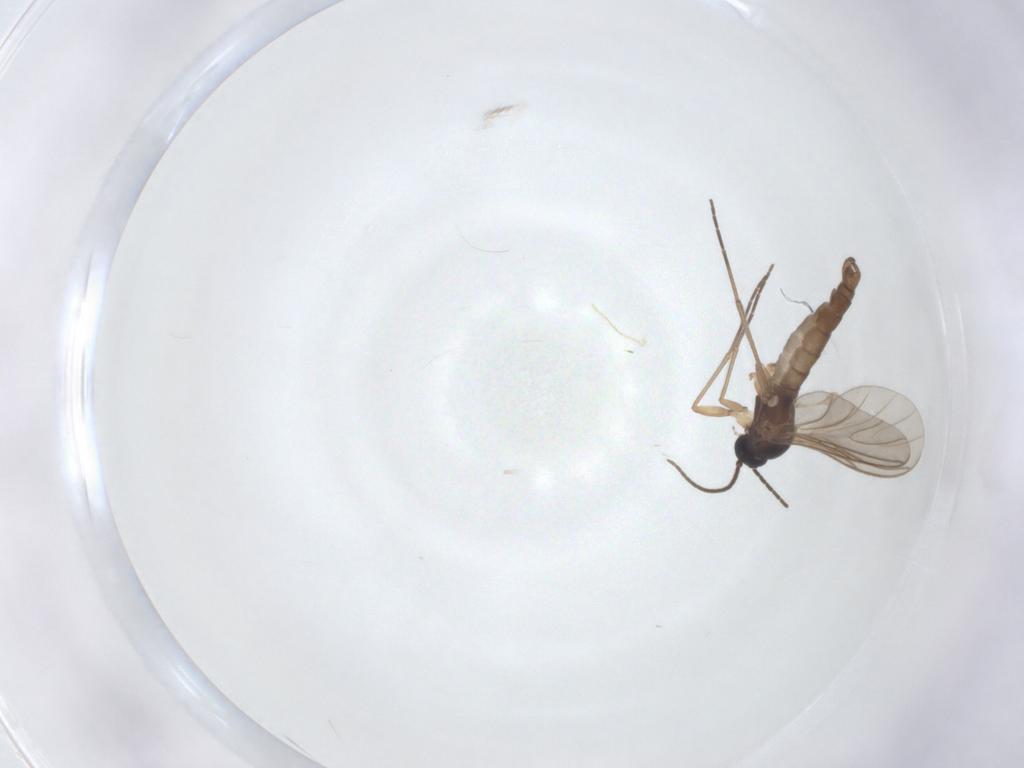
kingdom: Animalia
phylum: Arthropoda
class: Insecta
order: Diptera
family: Sciaridae
